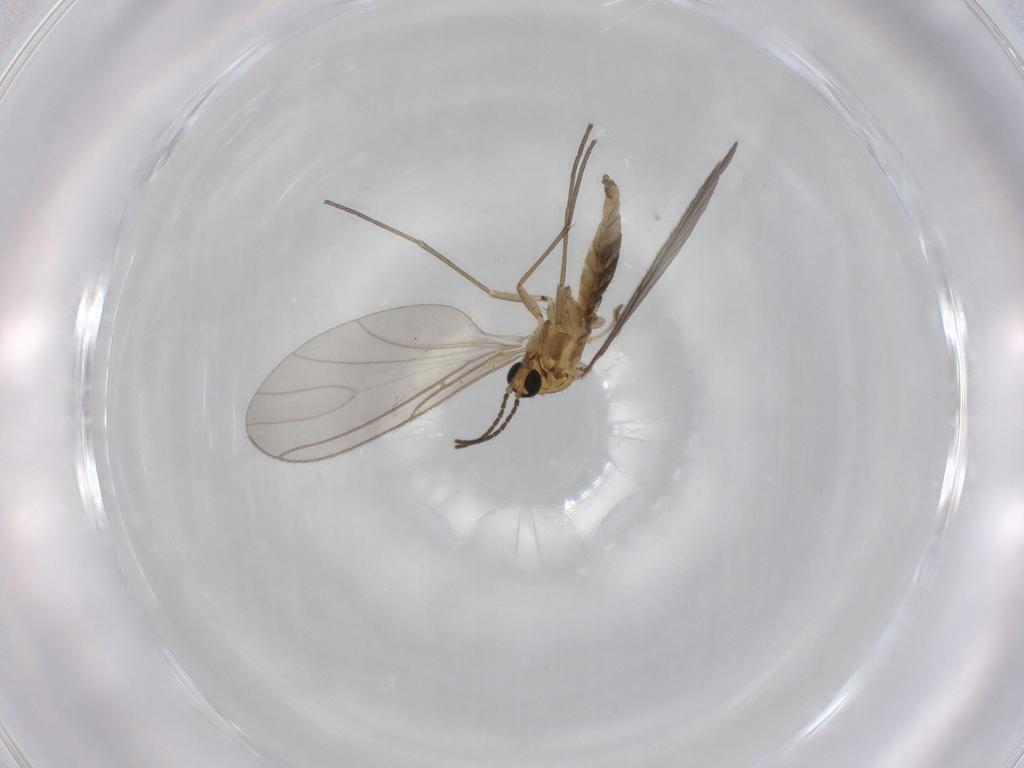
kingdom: Animalia
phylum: Arthropoda
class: Insecta
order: Diptera
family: Sciaridae
